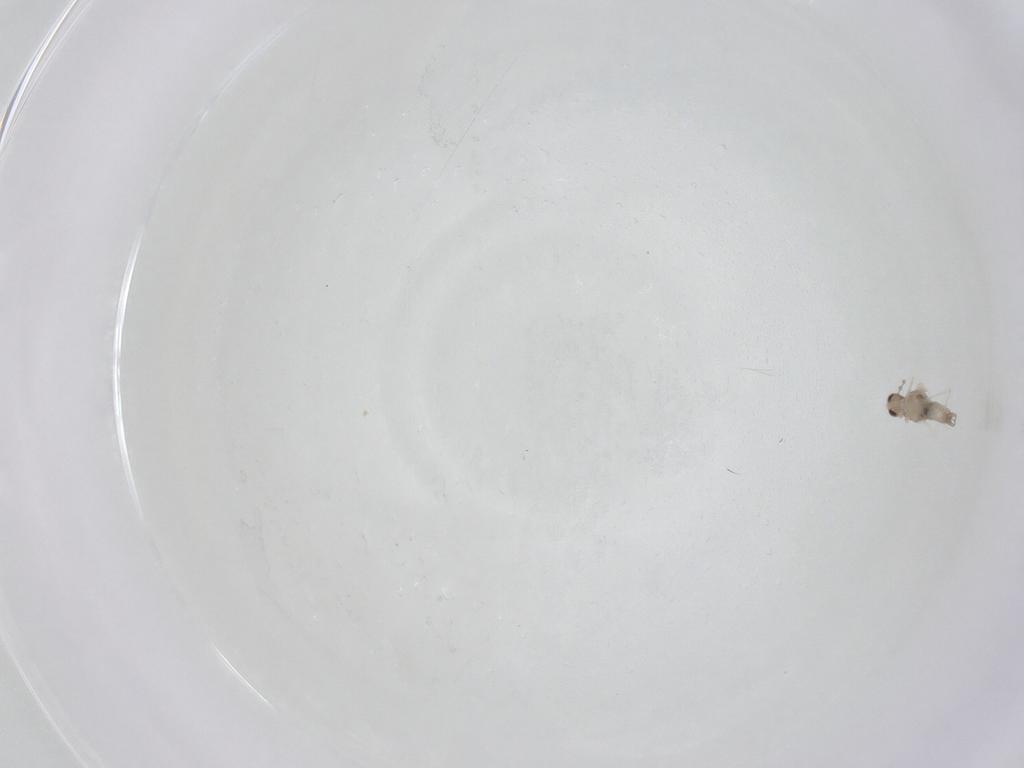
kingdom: Animalia
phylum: Arthropoda
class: Insecta
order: Diptera
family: Cecidomyiidae
